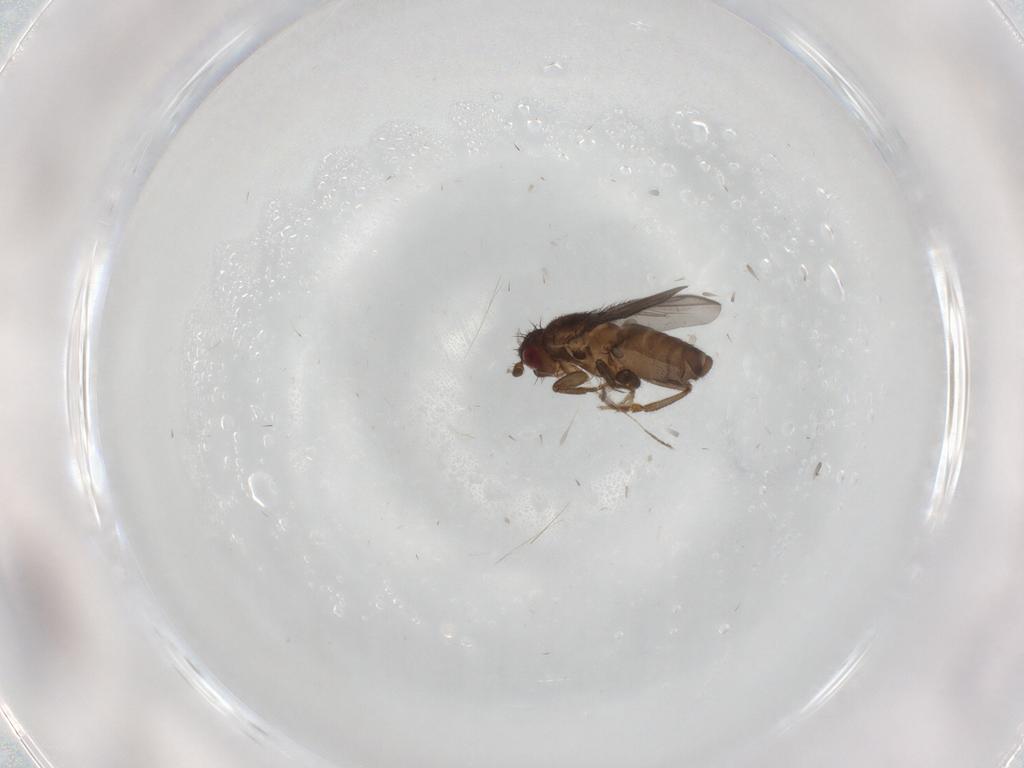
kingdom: Animalia
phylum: Arthropoda
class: Insecta
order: Diptera
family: Sphaeroceridae
